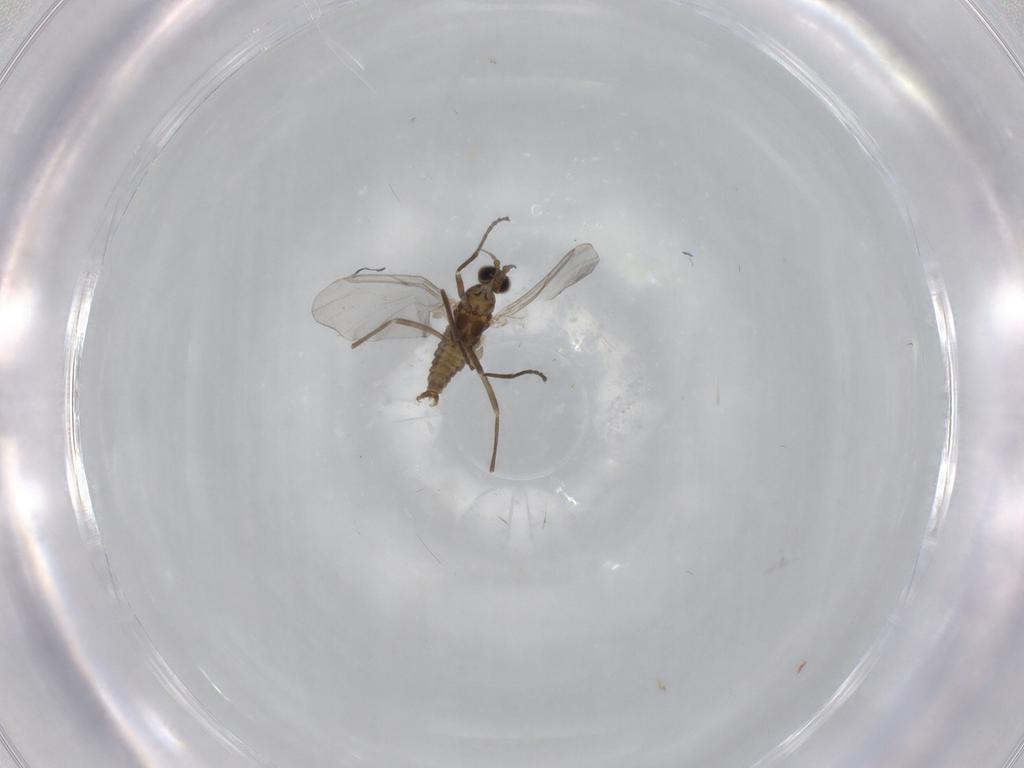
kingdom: Animalia
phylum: Arthropoda
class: Insecta
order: Diptera
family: Cecidomyiidae
